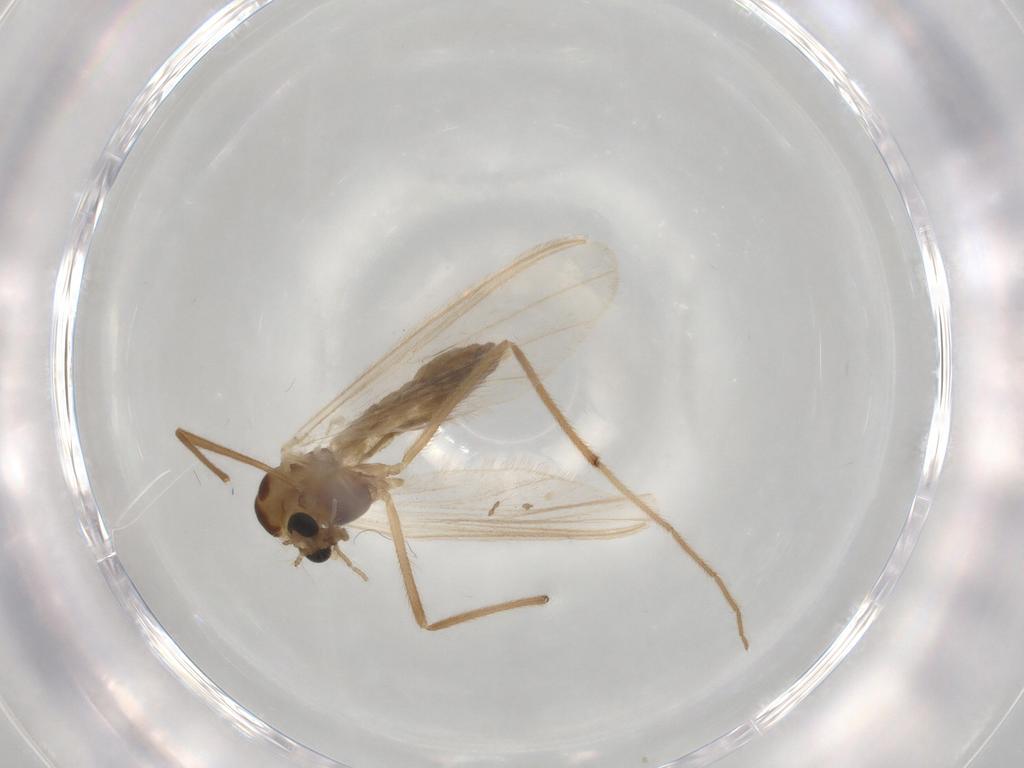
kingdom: Animalia
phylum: Arthropoda
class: Insecta
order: Diptera
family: Chironomidae
